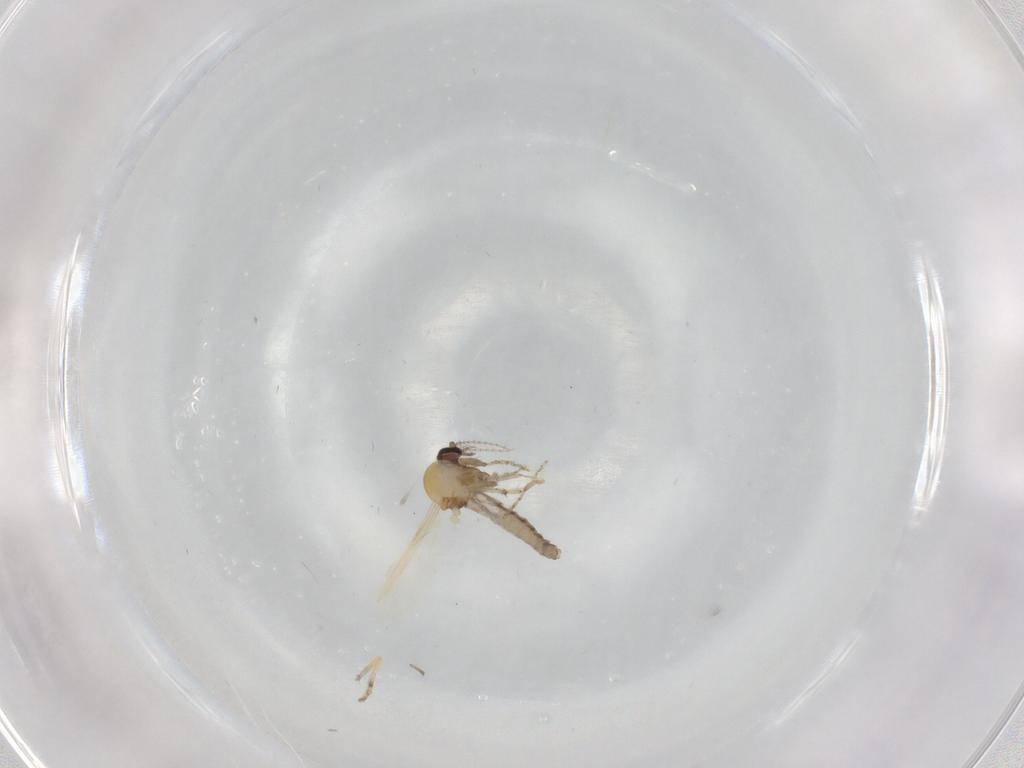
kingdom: Animalia
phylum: Arthropoda
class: Insecta
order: Diptera
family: Ceratopogonidae
